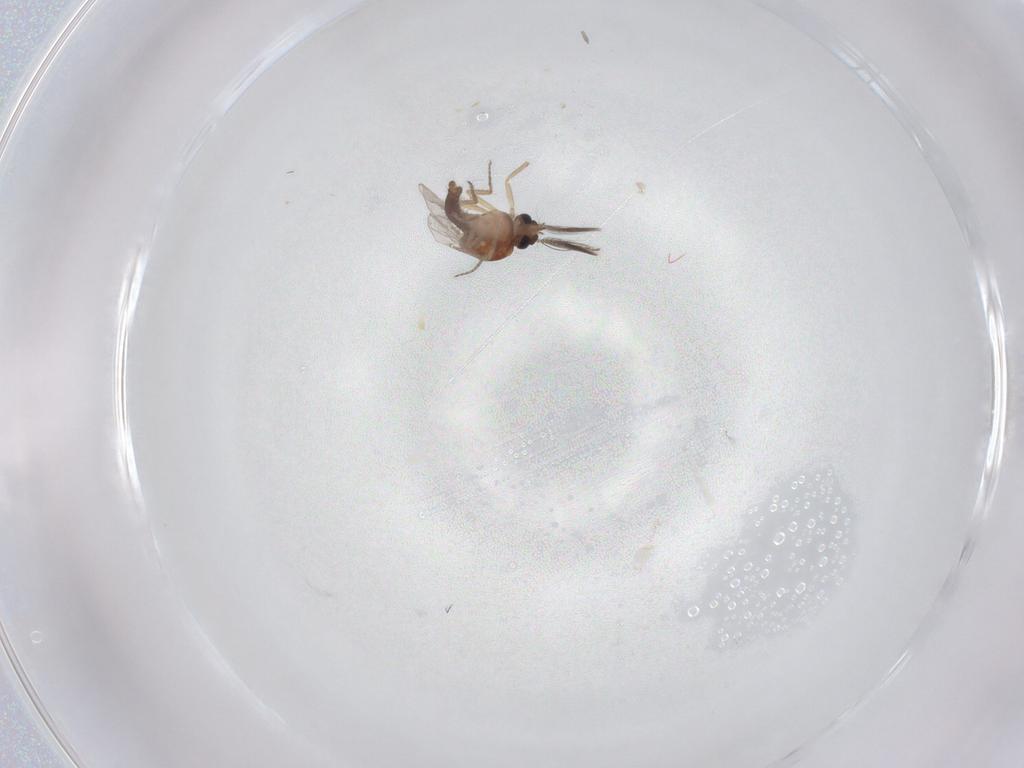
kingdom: Animalia
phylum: Arthropoda
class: Insecta
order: Diptera
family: Ceratopogonidae
